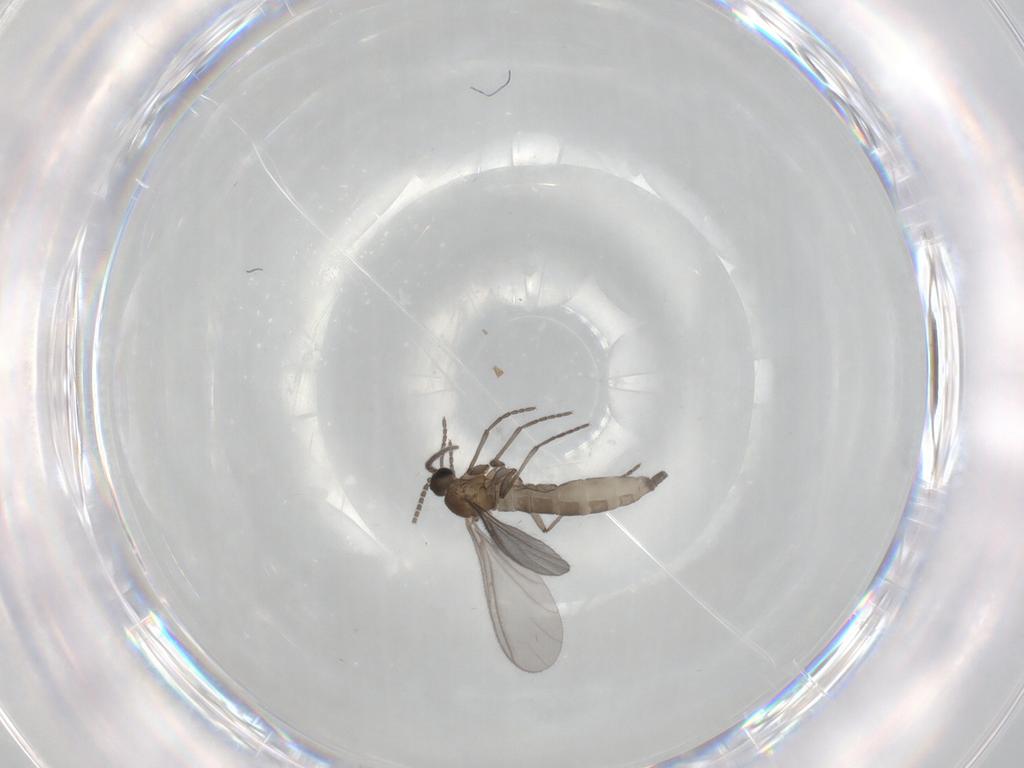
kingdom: Animalia
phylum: Arthropoda
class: Insecta
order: Diptera
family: Sciaridae
